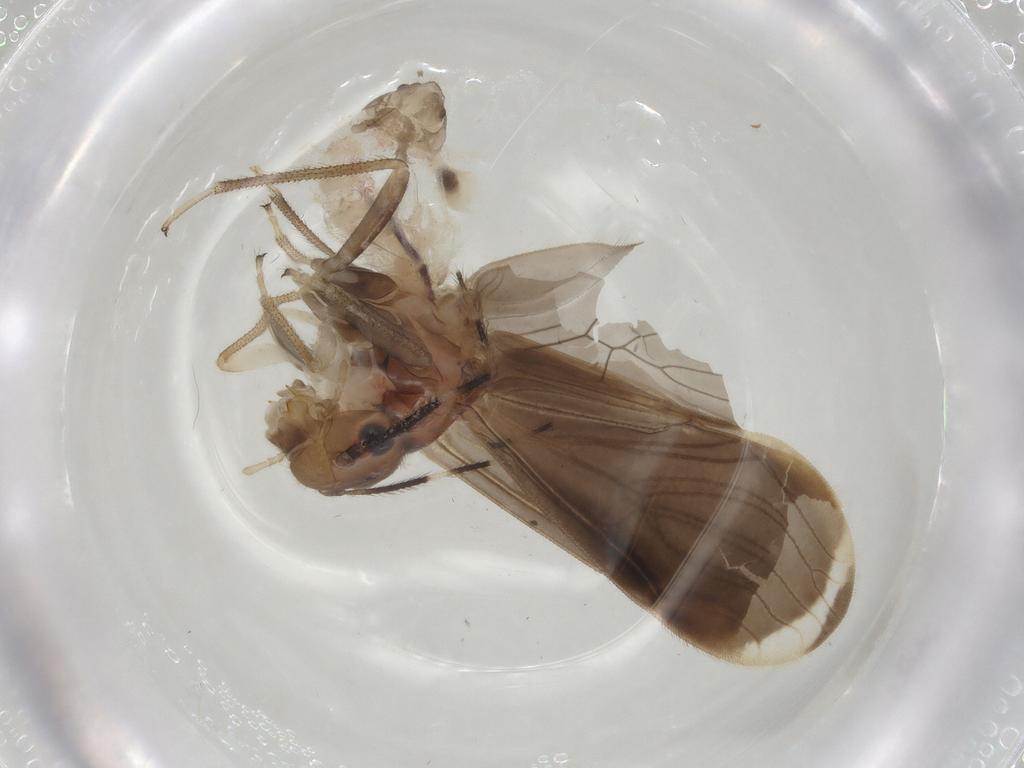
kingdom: Animalia
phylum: Arthropoda
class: Insecta
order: Psocodea
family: Amphipsocidae
